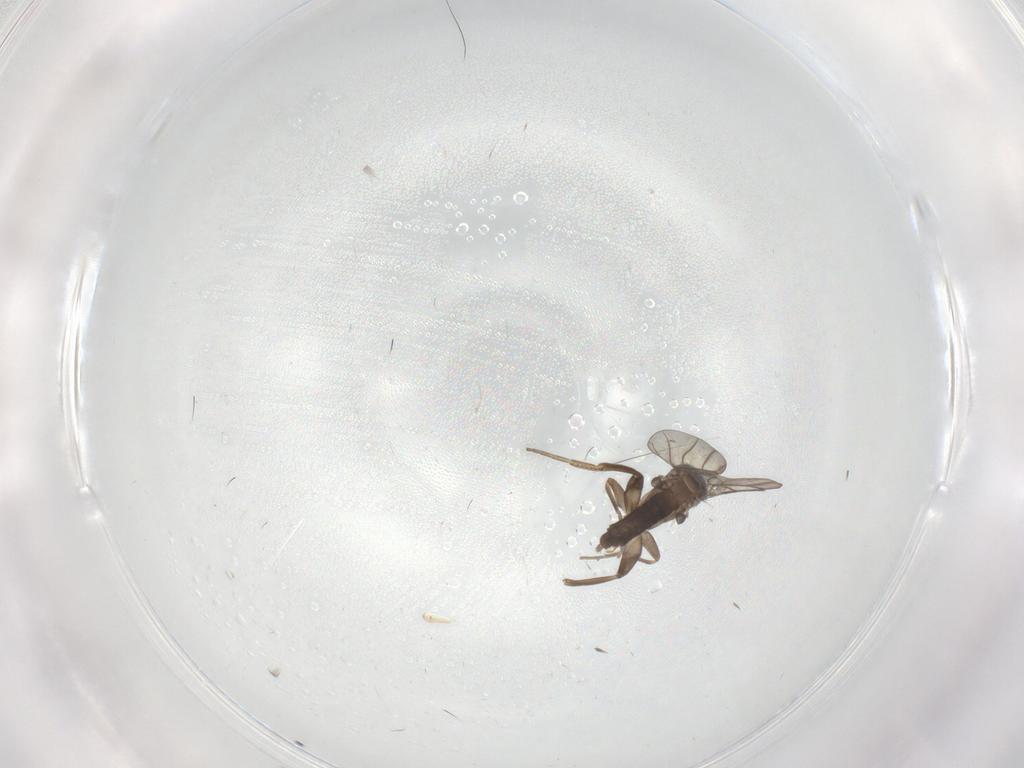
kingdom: Animalia
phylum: Arthropoda
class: Insecta
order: Diptera
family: Phoridae
